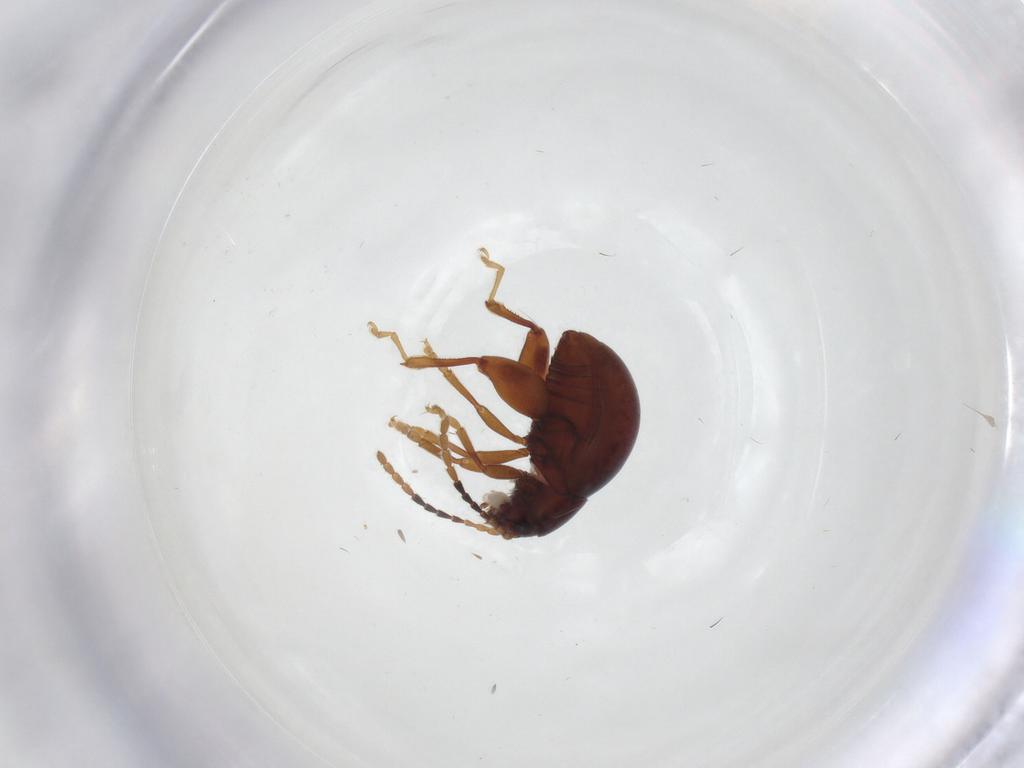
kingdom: Animalia
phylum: Arthropoda
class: Insecta
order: Coleoptera
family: Chrysomelidae
